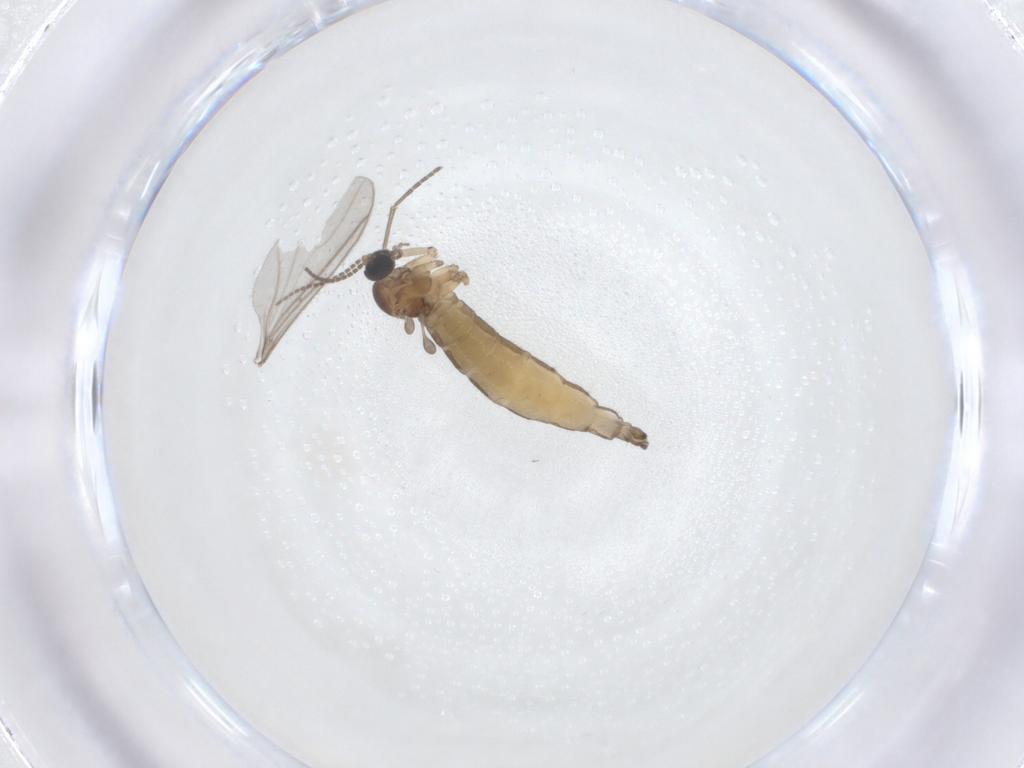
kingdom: Animalia
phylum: Arthropoda
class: Insecta
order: Diptera
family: Sciaridae
